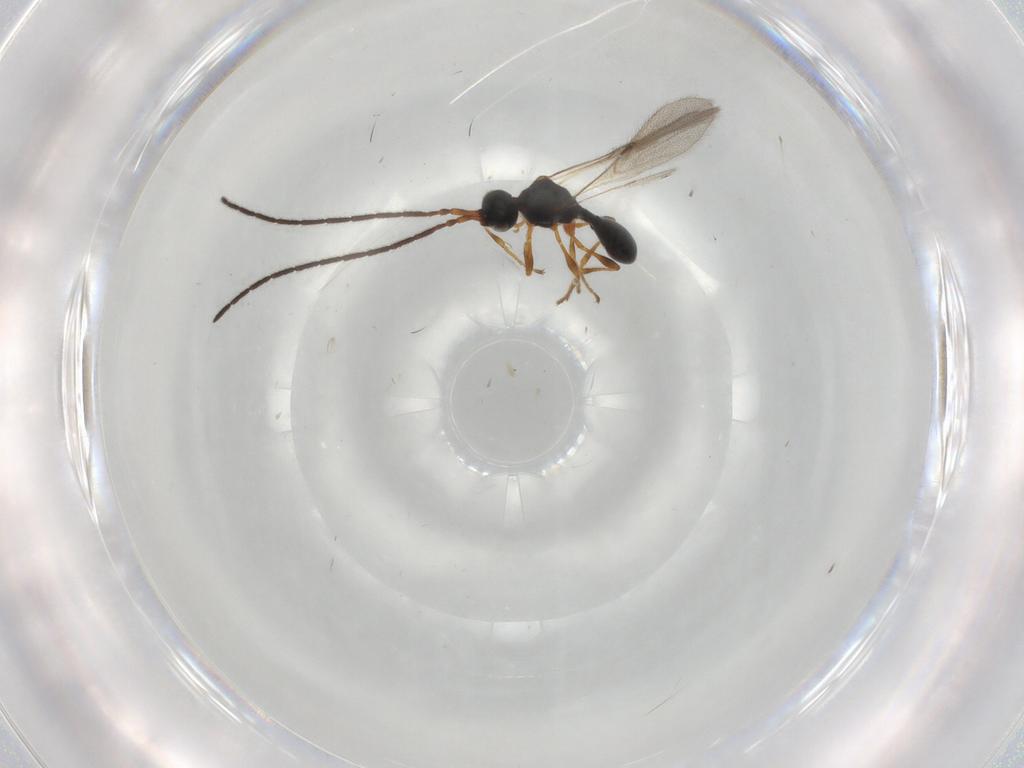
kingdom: Animalia
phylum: Arthropoda
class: Insecta
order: Hymenoptera
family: Diapriidae
